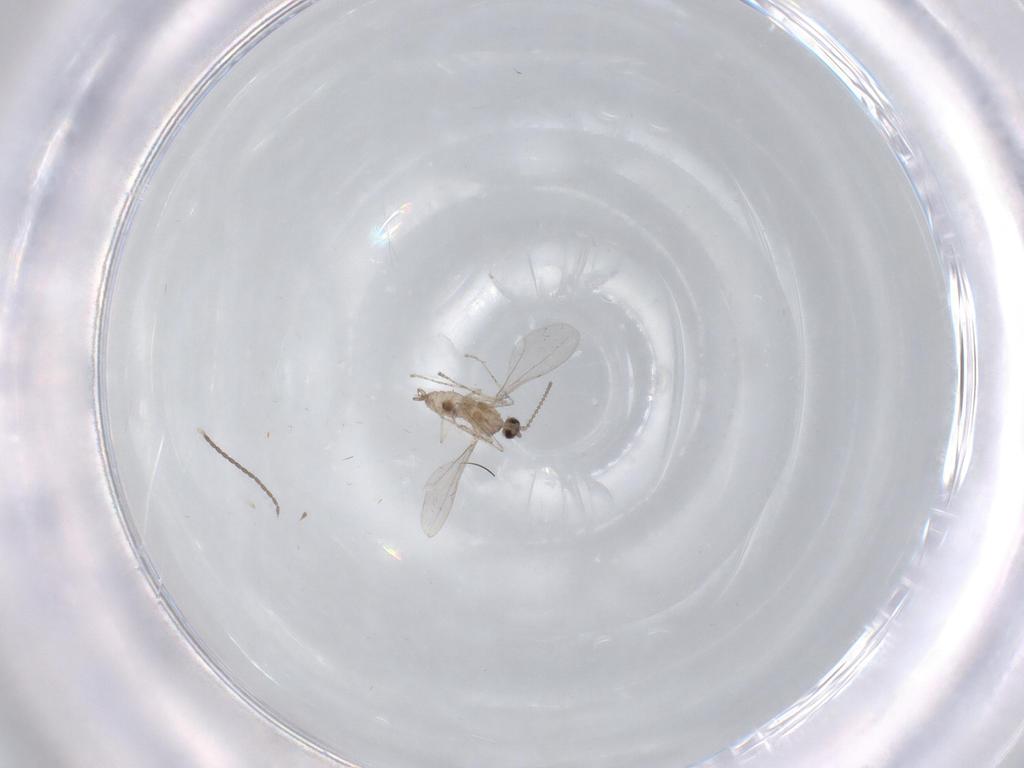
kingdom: Animalia
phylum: Arthropoda
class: Insecta
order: Diptera
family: Cecidomyiidae
